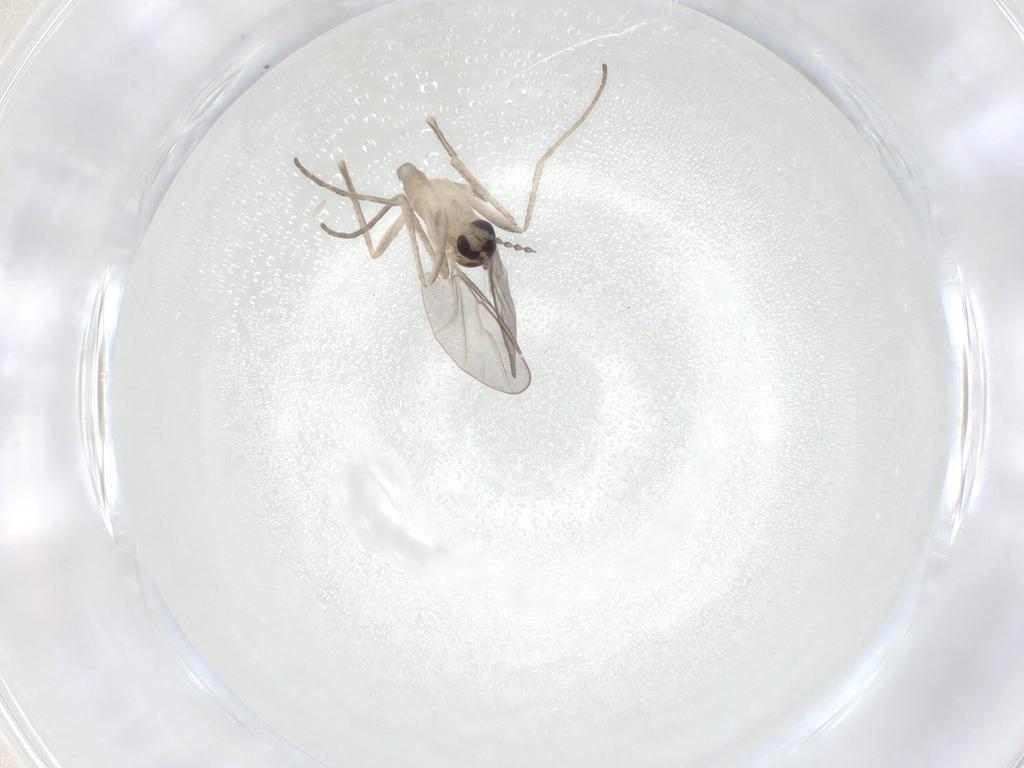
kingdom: Animalia
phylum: Arthropoda
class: Insecta
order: Diptera
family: Cecidomyiidae
